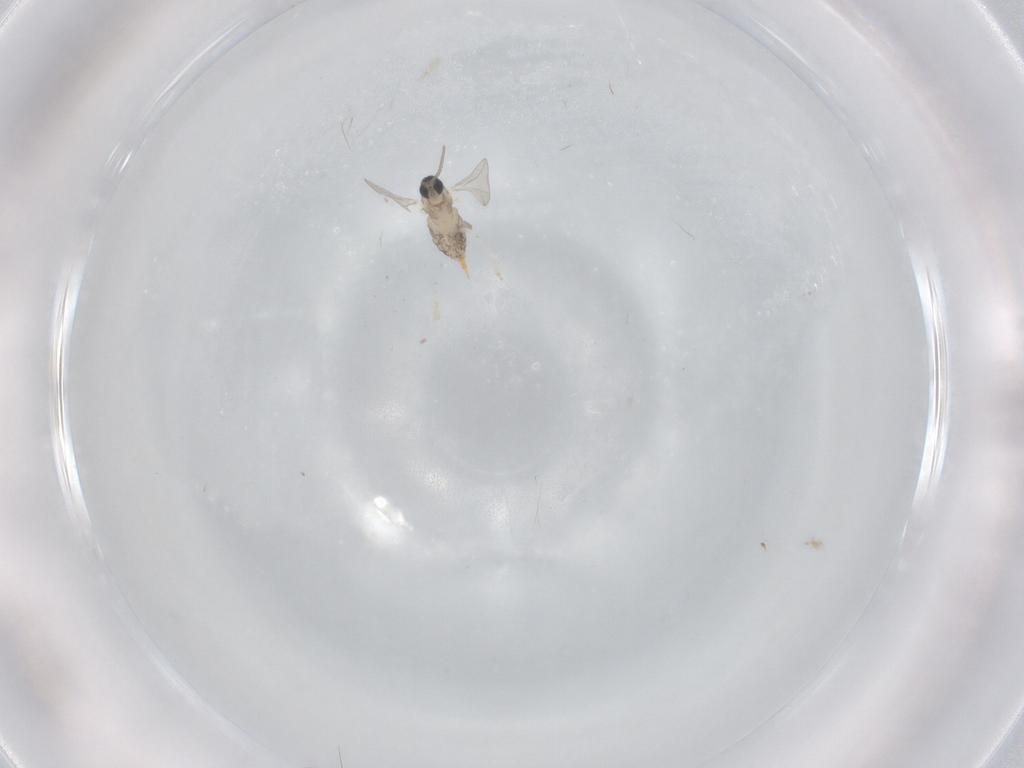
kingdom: Animalia
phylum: Arthropoda
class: Insecta
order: Diptera
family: Cecidomyiidae
